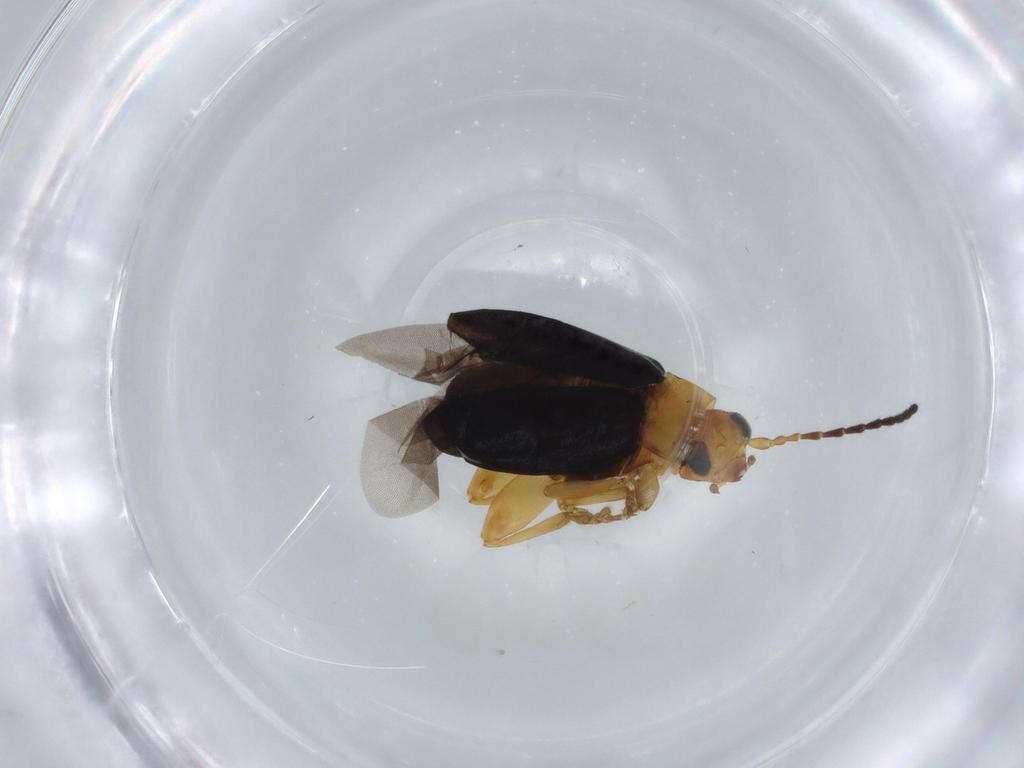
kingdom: Animalia
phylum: Arthropoda
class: Insecta
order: Coleoptera
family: Chrysomelidae
